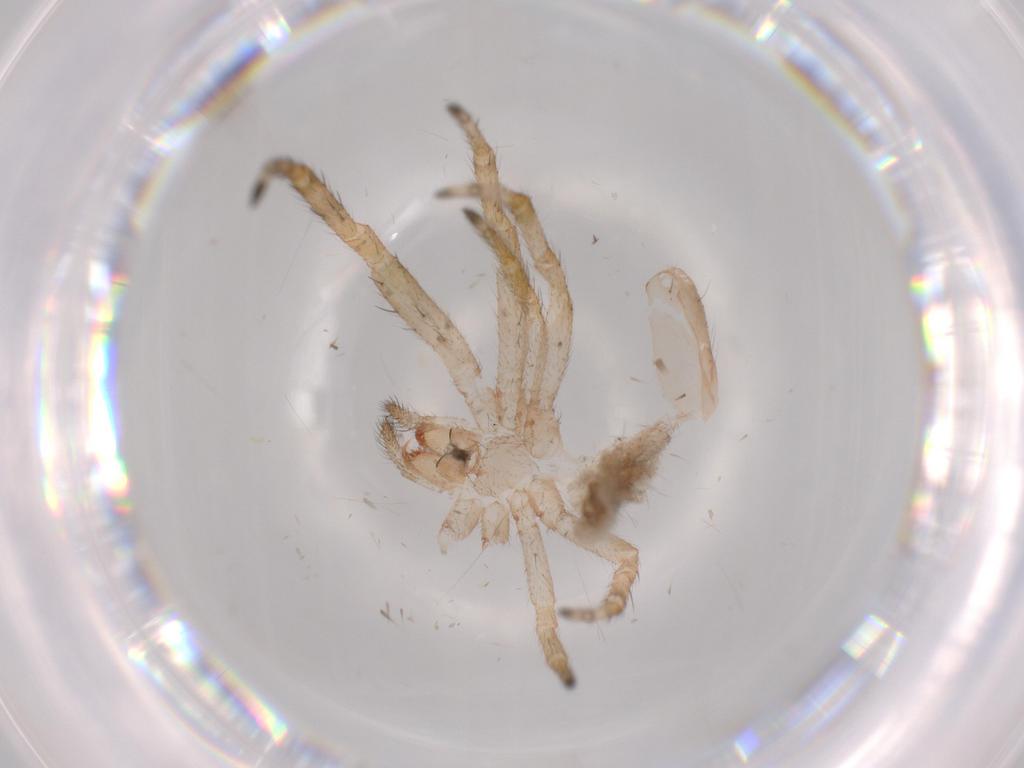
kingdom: Animalia
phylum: Arthropoda
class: Arachnida
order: Araneae
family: Araneidae
